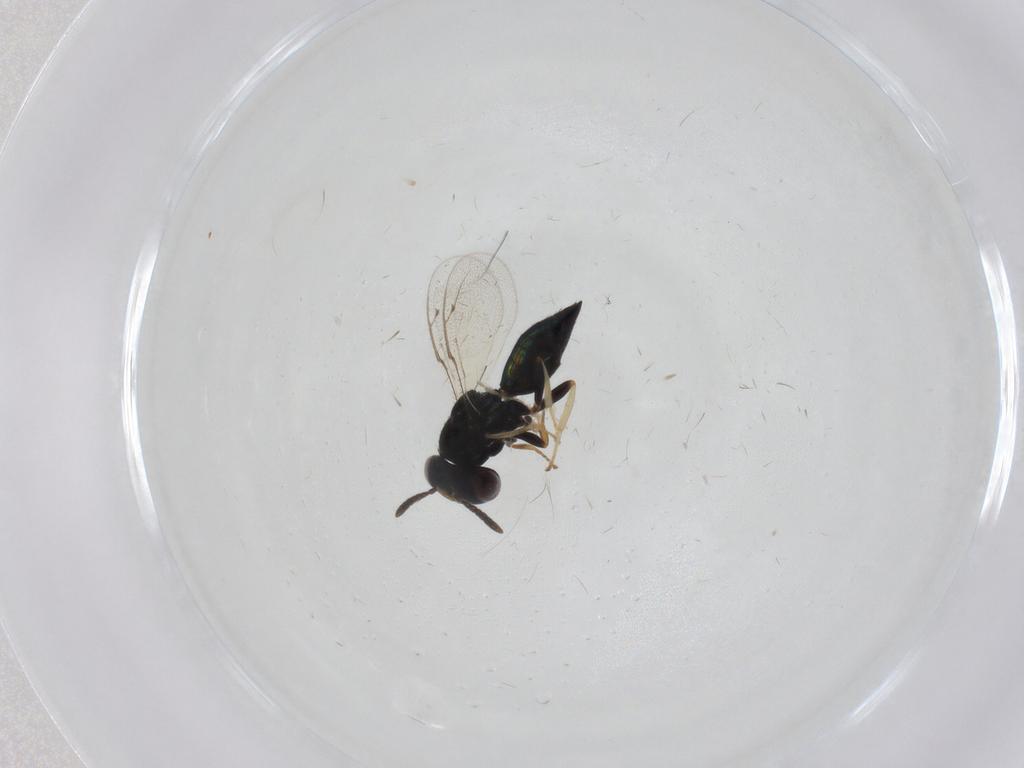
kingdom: Animalia
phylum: Arthropoda
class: Insecta
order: Hymenoptera
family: Pteromalidae
